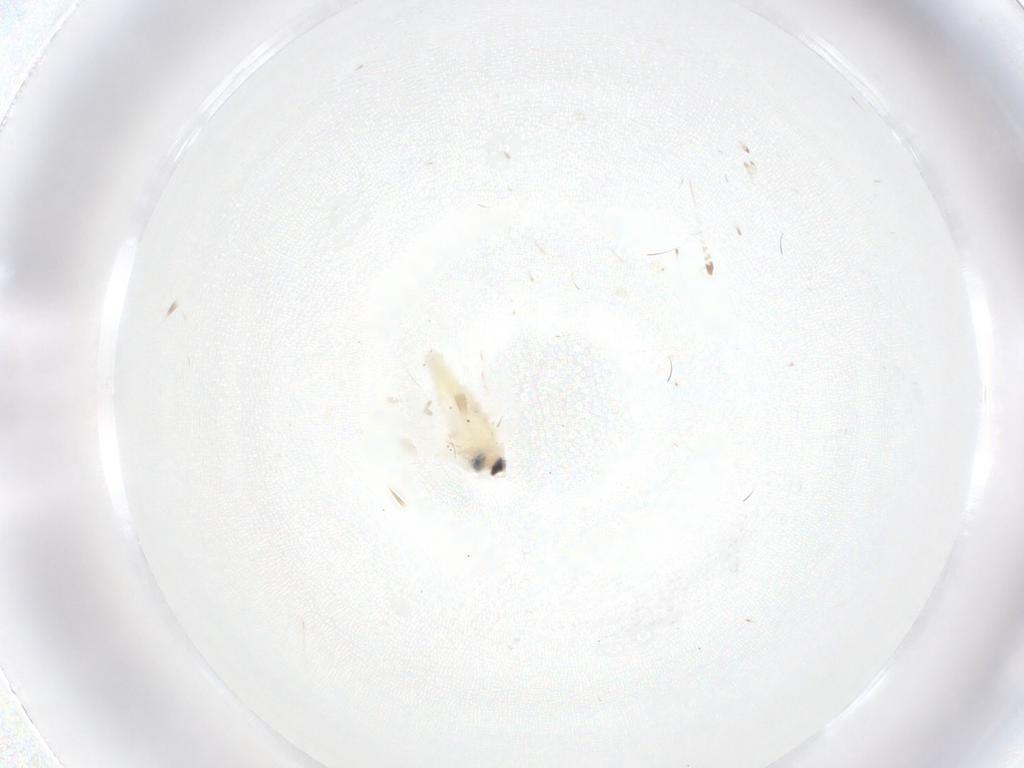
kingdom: Animalia
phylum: Arthropoda
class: Insecta
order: Lepidoptera
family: Gelechiidae
